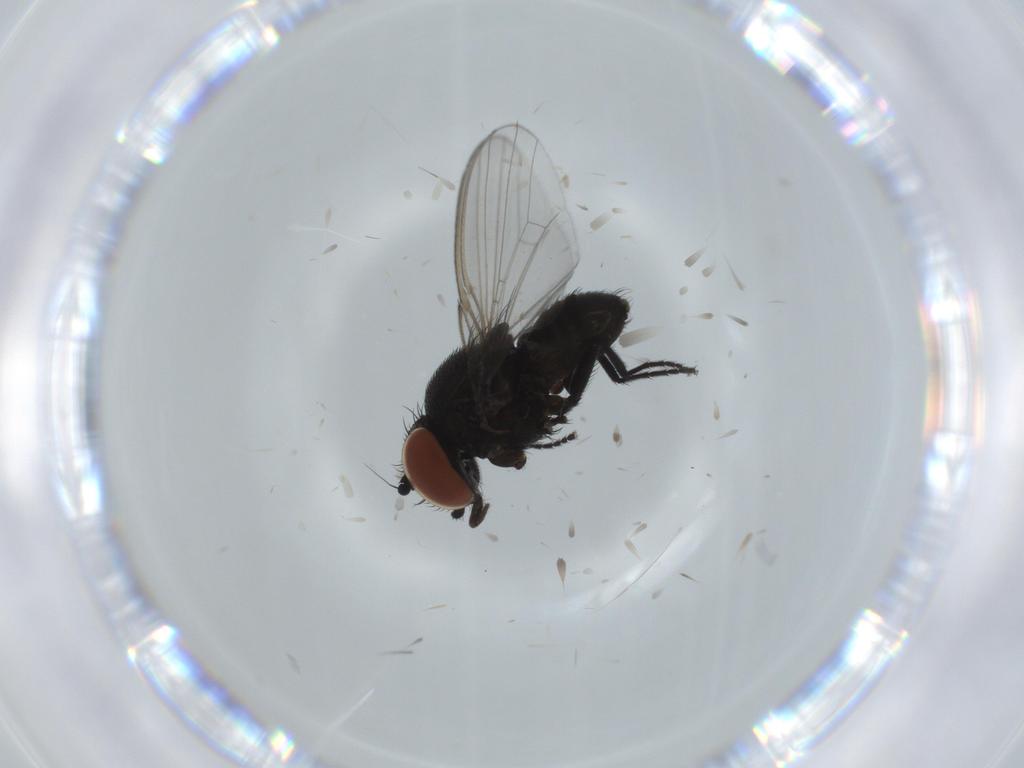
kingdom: Animalia
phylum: Arthropoda
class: Insecta
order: Diptera
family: Milichiidae
